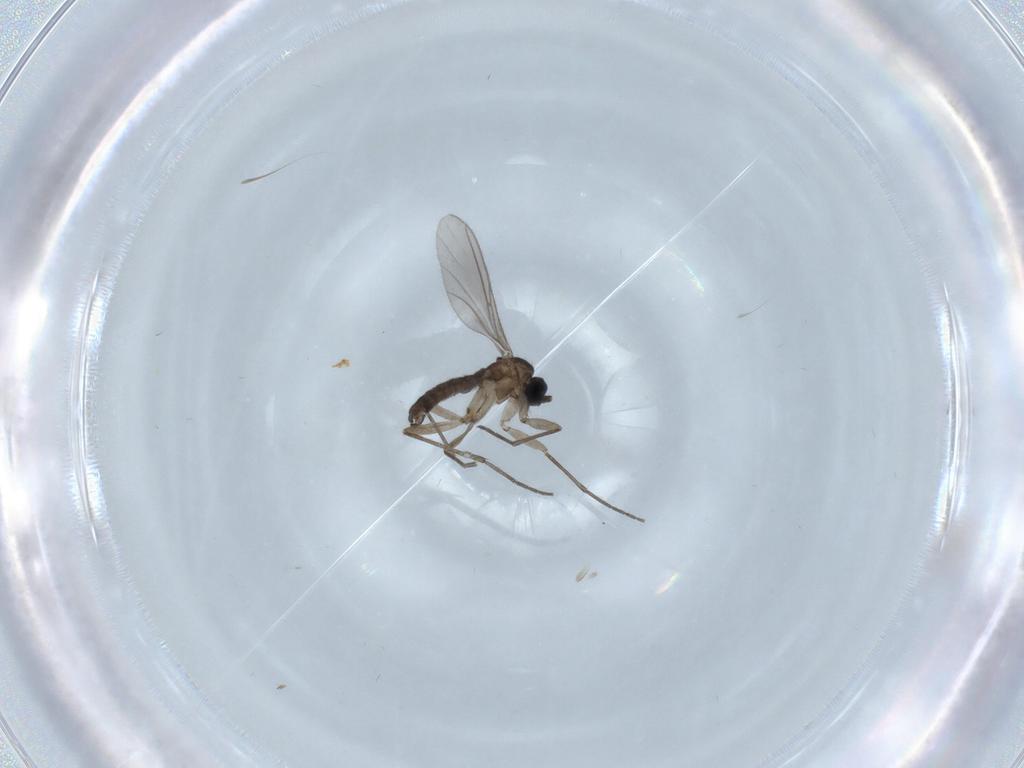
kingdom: Animalia
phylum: Arthropoda
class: Insecta
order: Diptera
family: Sciaridae
